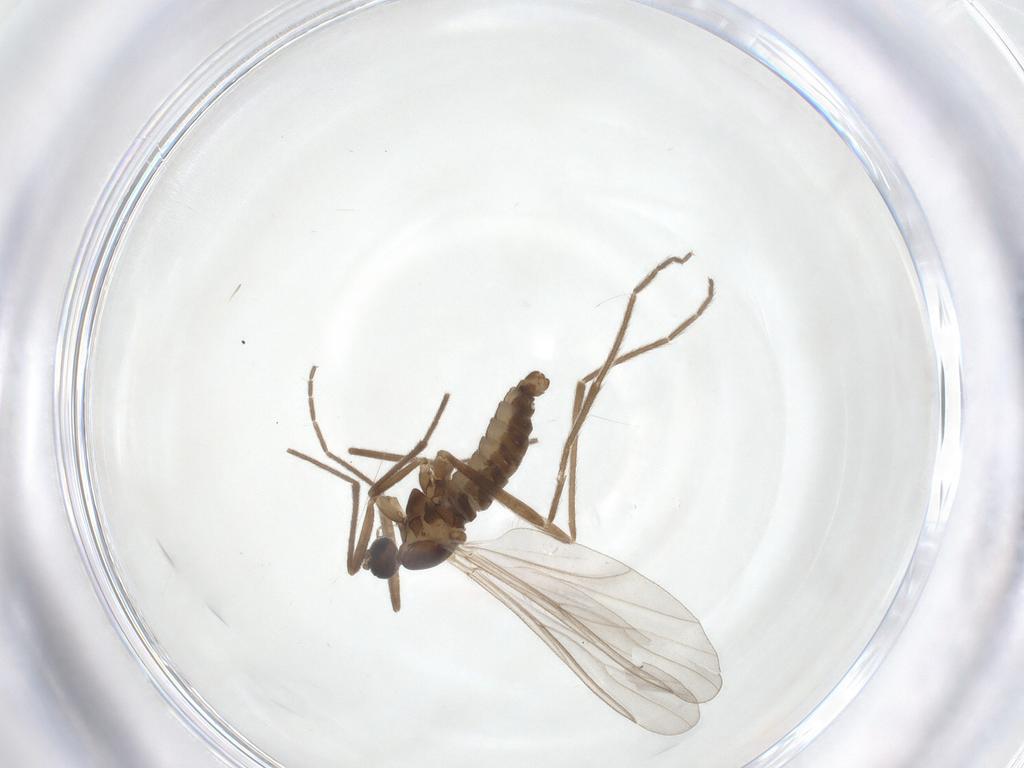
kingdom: Animalia
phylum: Arthropoda
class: Insecta
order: Diptera
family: Cecidomyiidae
